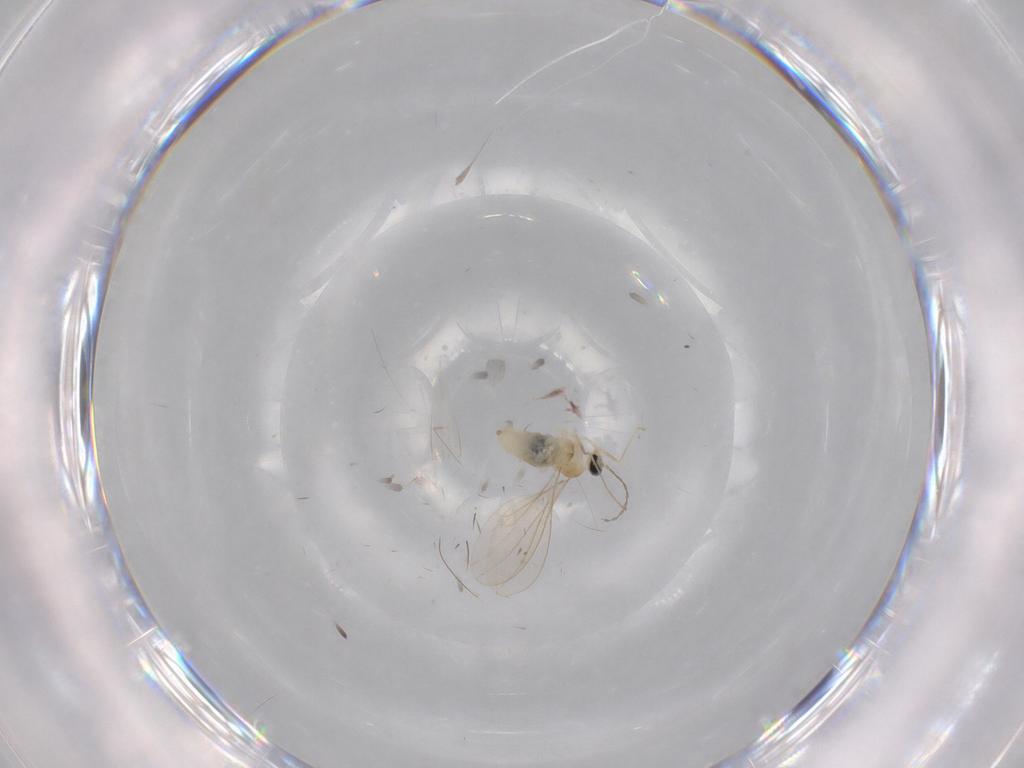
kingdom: Animalia
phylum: Arthropoda
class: Insecta
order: Diptera
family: Cecidomyiidae
